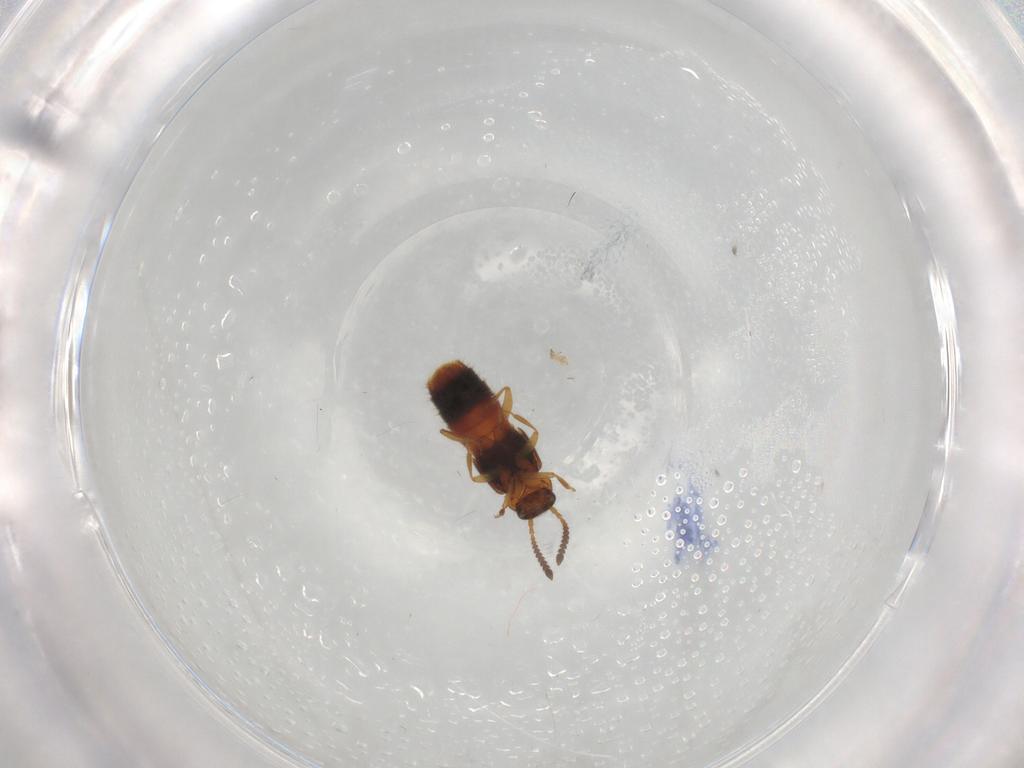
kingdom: Animalia
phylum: Arthropoda
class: Insecta
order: Coleoptera
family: Staphylinidae
